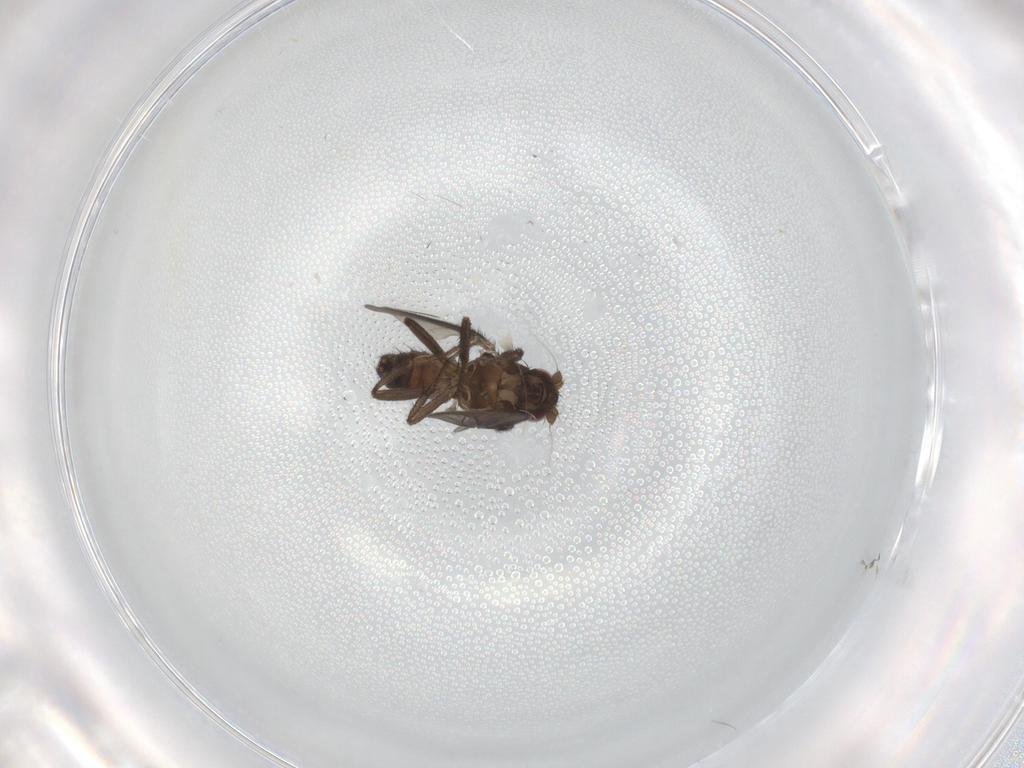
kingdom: Animalia
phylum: Arthropoda
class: Insecta
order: Diptera
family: Sphaeroceridae
